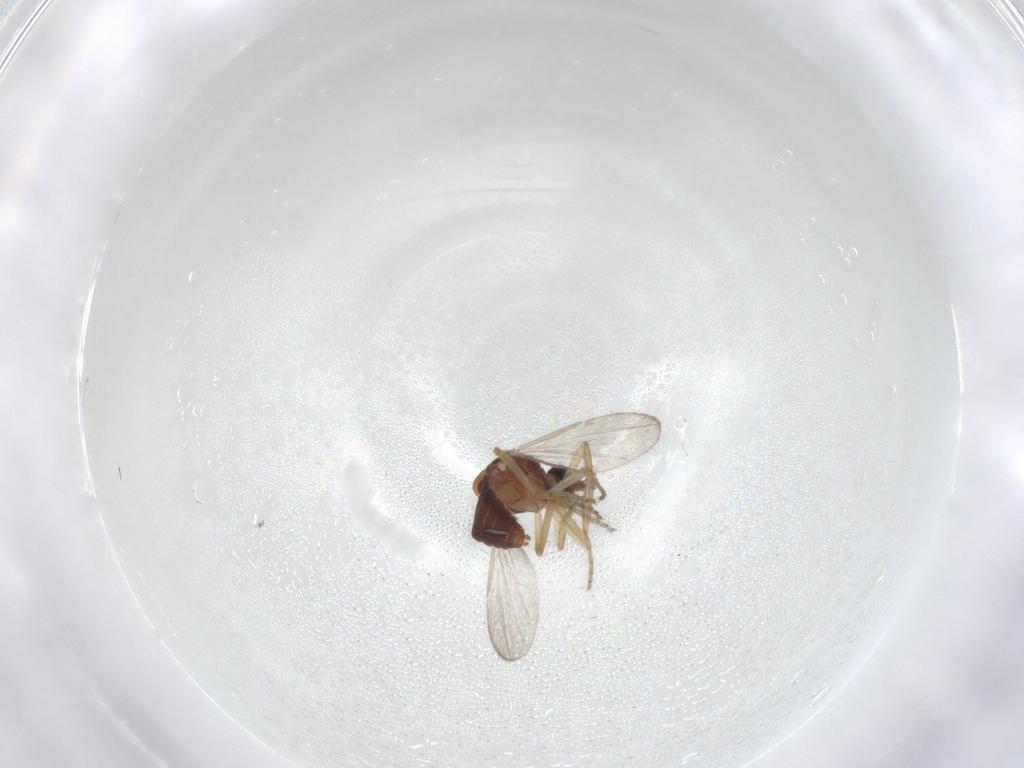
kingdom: Animalia
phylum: Arthropoda
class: Insecta
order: Diptera
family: Ceratopogonidae
